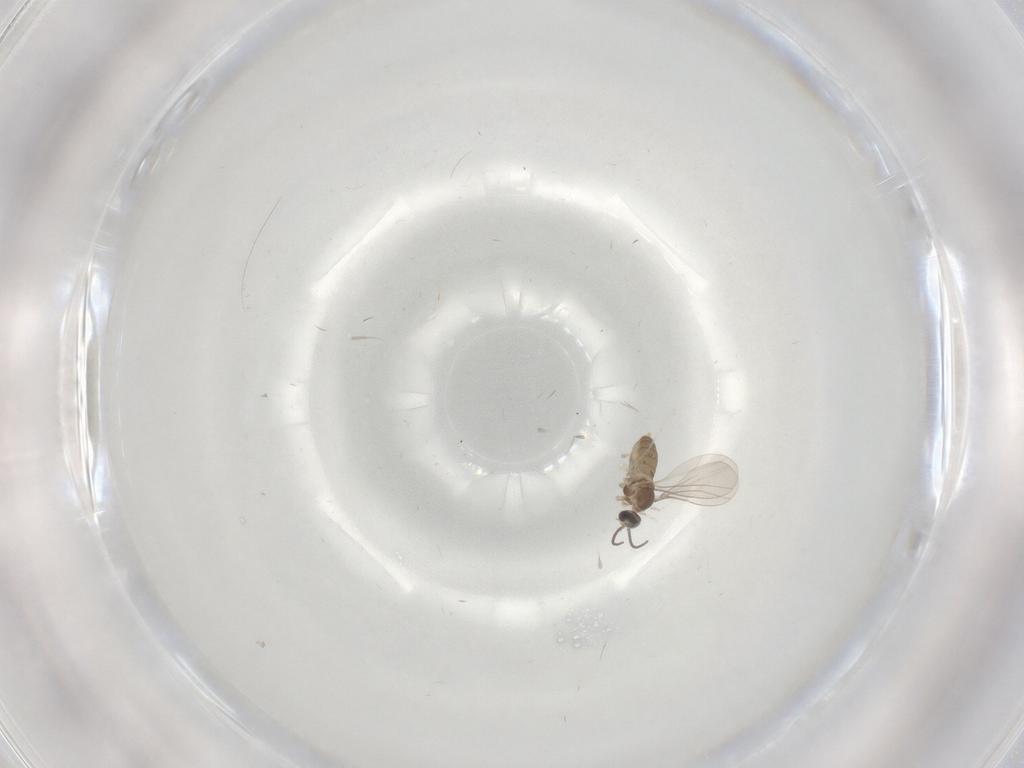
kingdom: Animalia
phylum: Arthropoda
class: Insecta
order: Diptera
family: Cecidomyiidae
